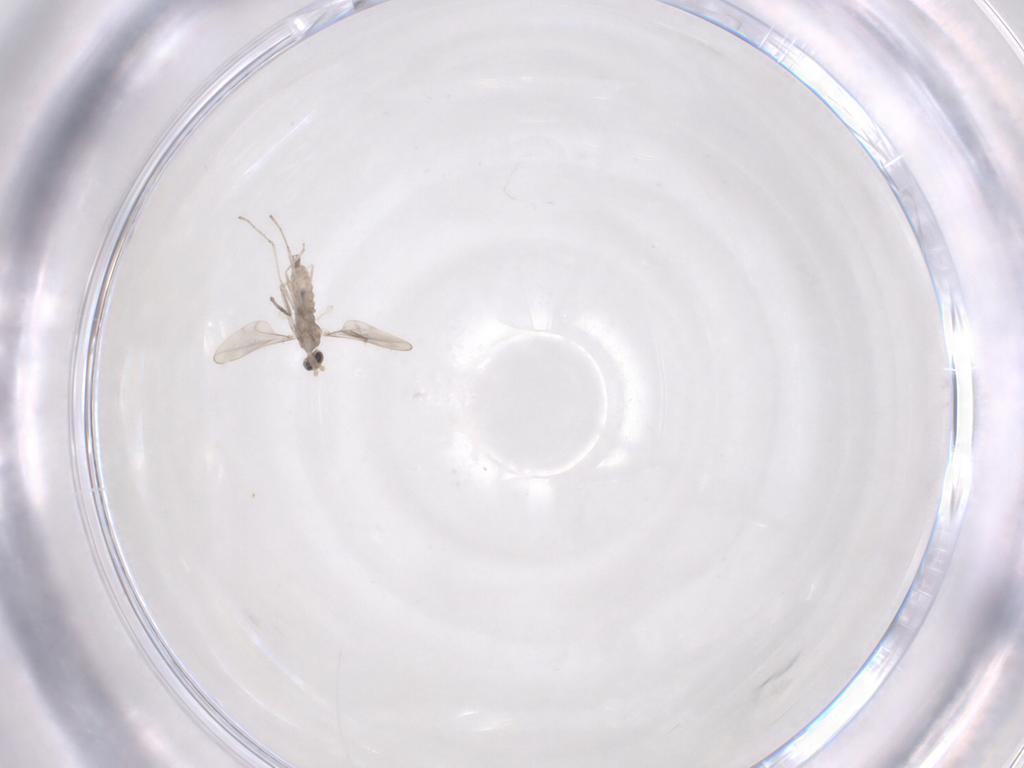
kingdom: Animalia
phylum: Arthropoda
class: Insecta
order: Diptera
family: Cecidomyiidae
